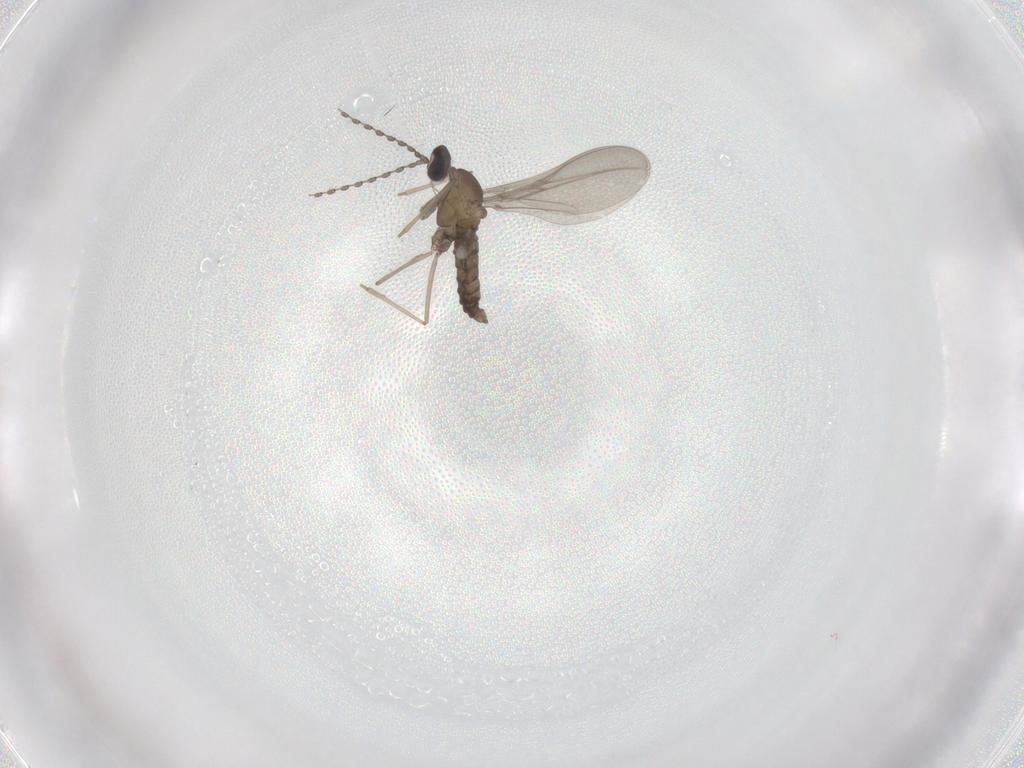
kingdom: Animalia
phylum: Arthropoda
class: Insecta
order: Diptera
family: Cecidomyiidae
